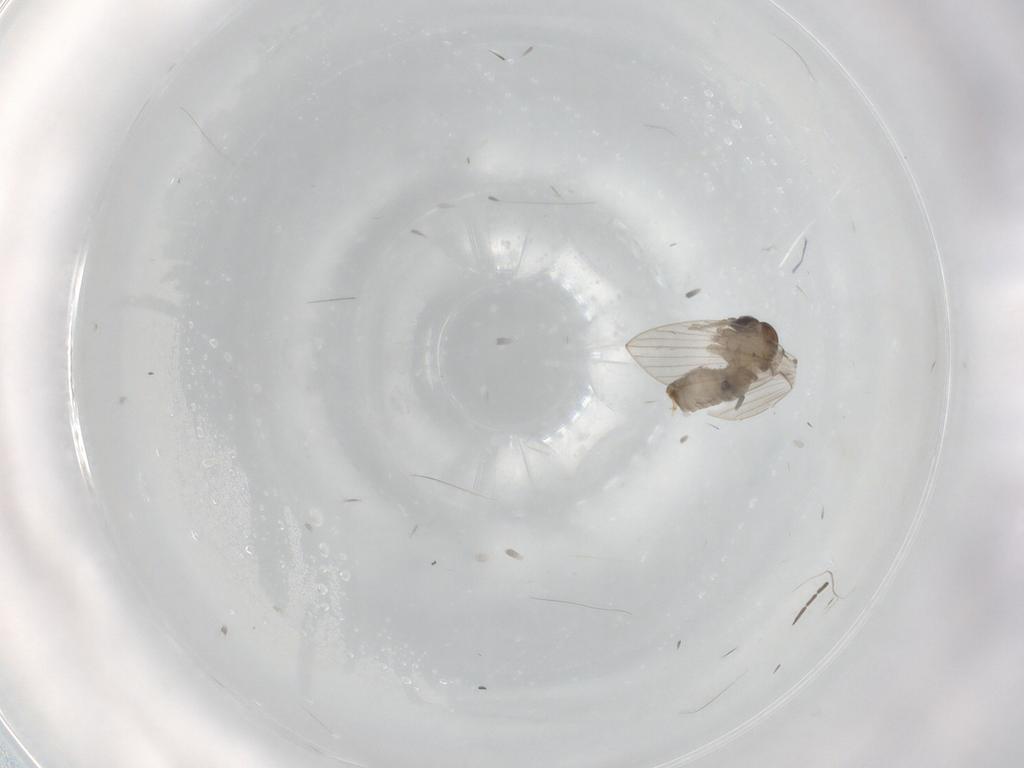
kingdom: Animalia
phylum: Arthropoda
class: Insecta
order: Diptera
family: Psychodidae
